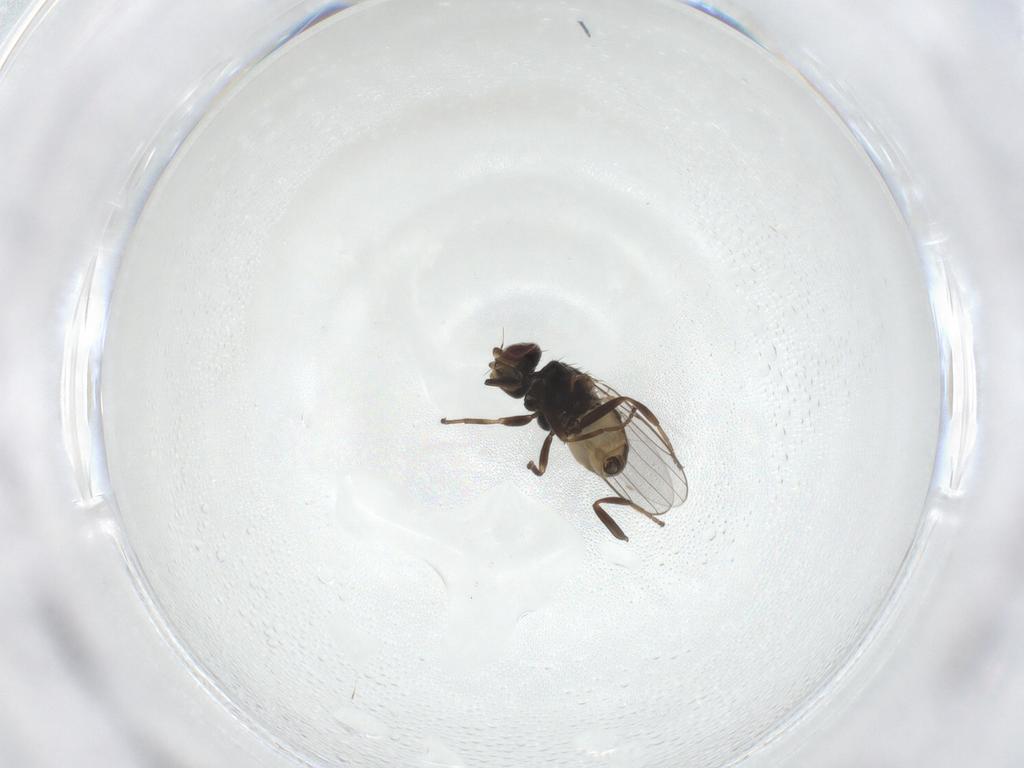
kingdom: Animalia
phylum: Arthropoda
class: Insecta
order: Diptera
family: Chloropidae
